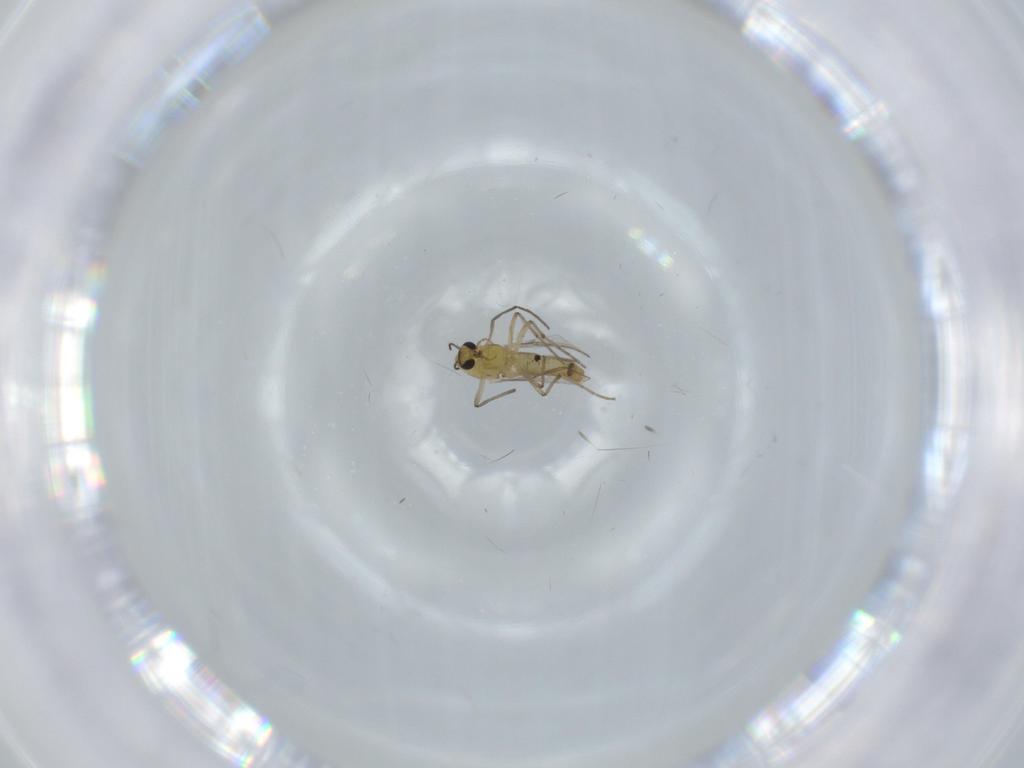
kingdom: Animalia
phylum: Arthropoda
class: Insecta
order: Diptera
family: Chironomidae
